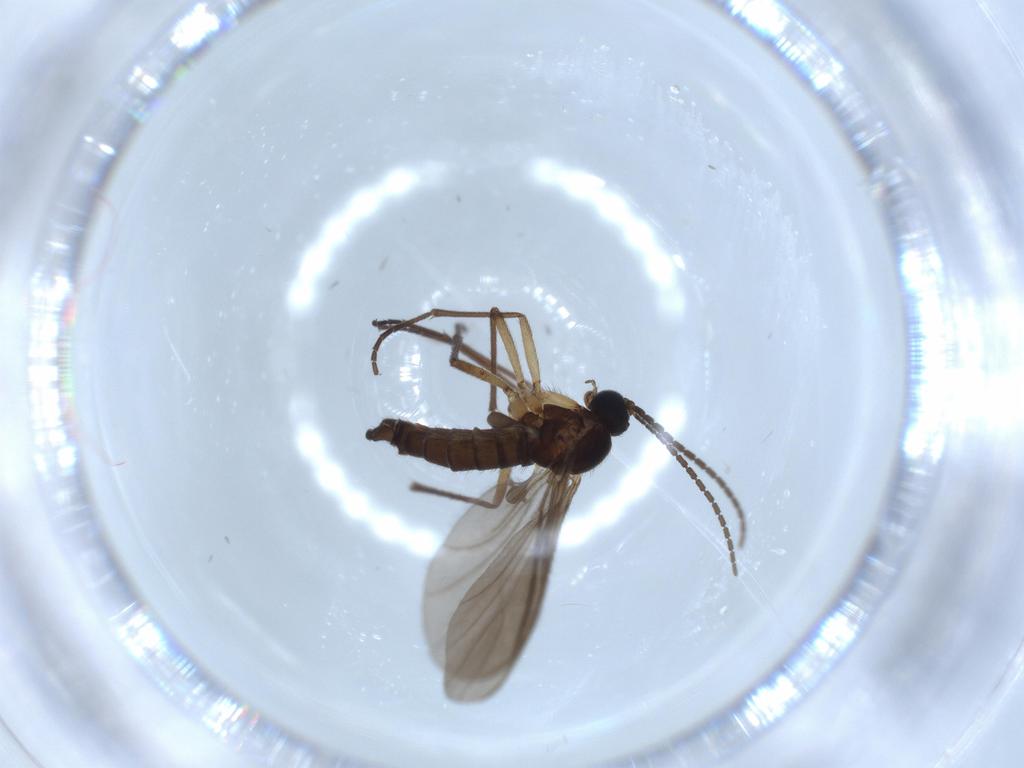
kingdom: Animalia
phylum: Arthropoda
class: Insecta
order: Diptera
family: Sciaridae
